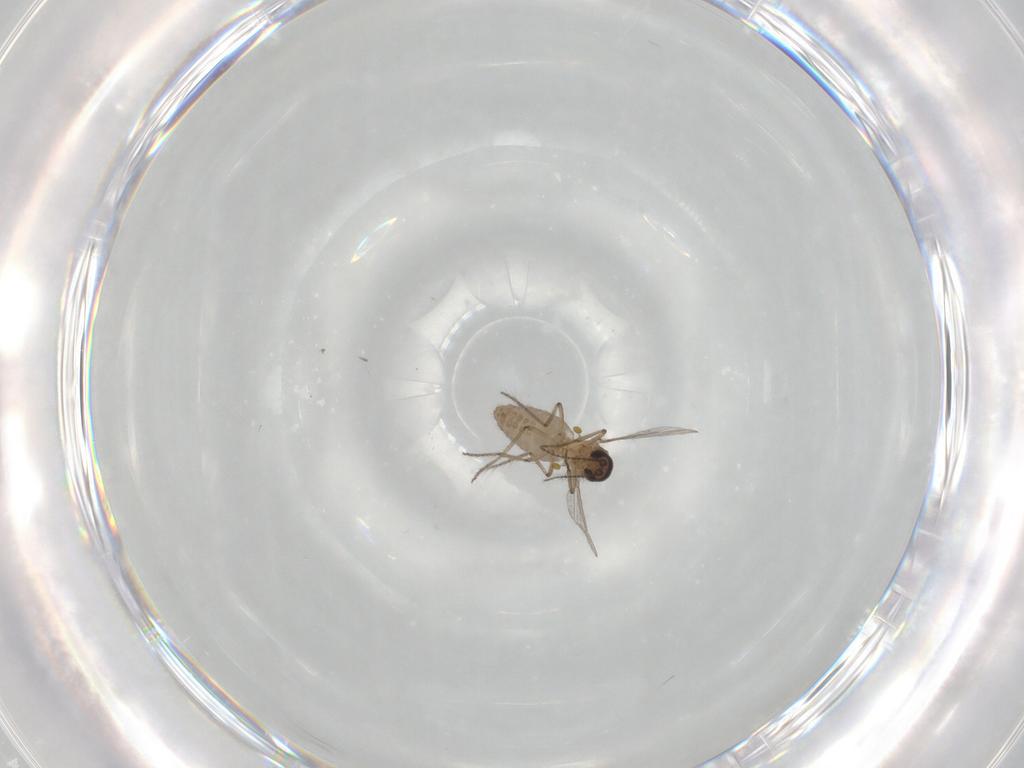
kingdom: Animalia
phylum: Arthropoda
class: Insecta
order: Diptera
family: Ceratopogonidae
